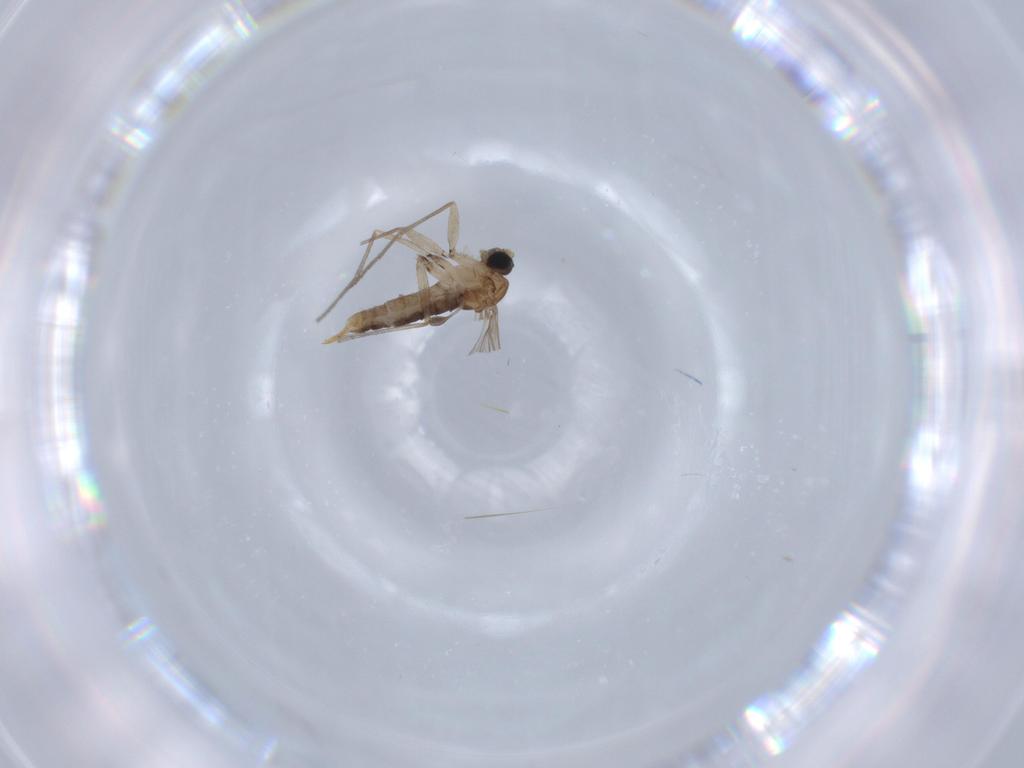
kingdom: Animalia
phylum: Arthropoda
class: Insecta
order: Diptera
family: Sciaridae
